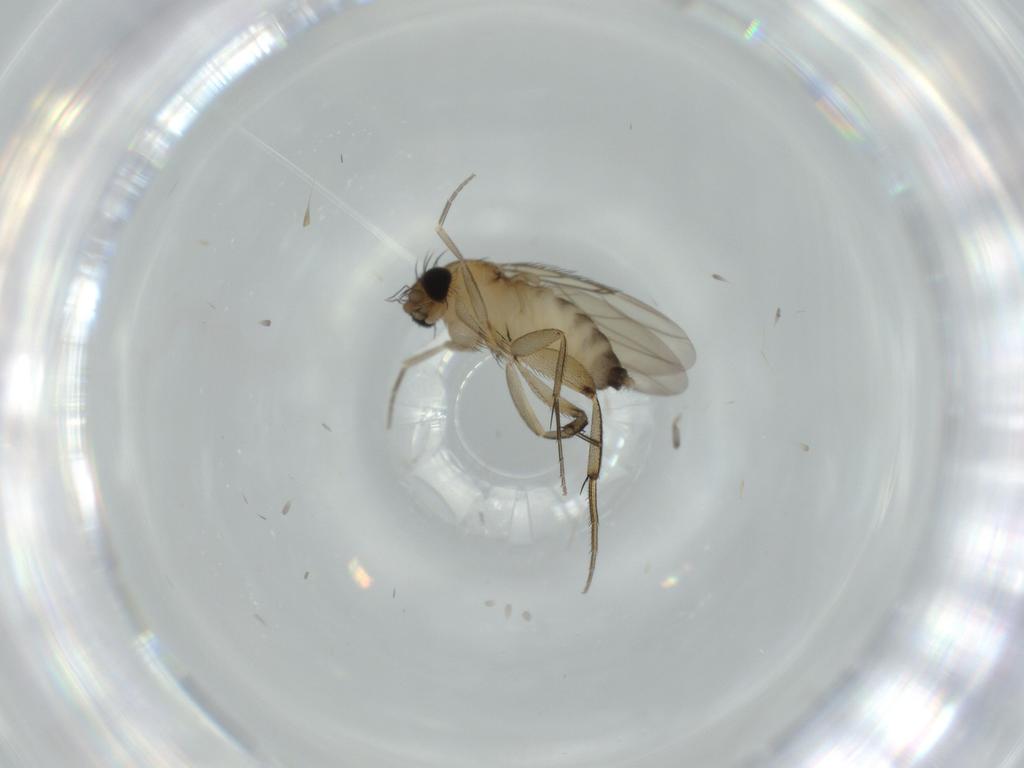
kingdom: Animalia
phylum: Arthropoda
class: Insecta
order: Diptera
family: Phoridae
